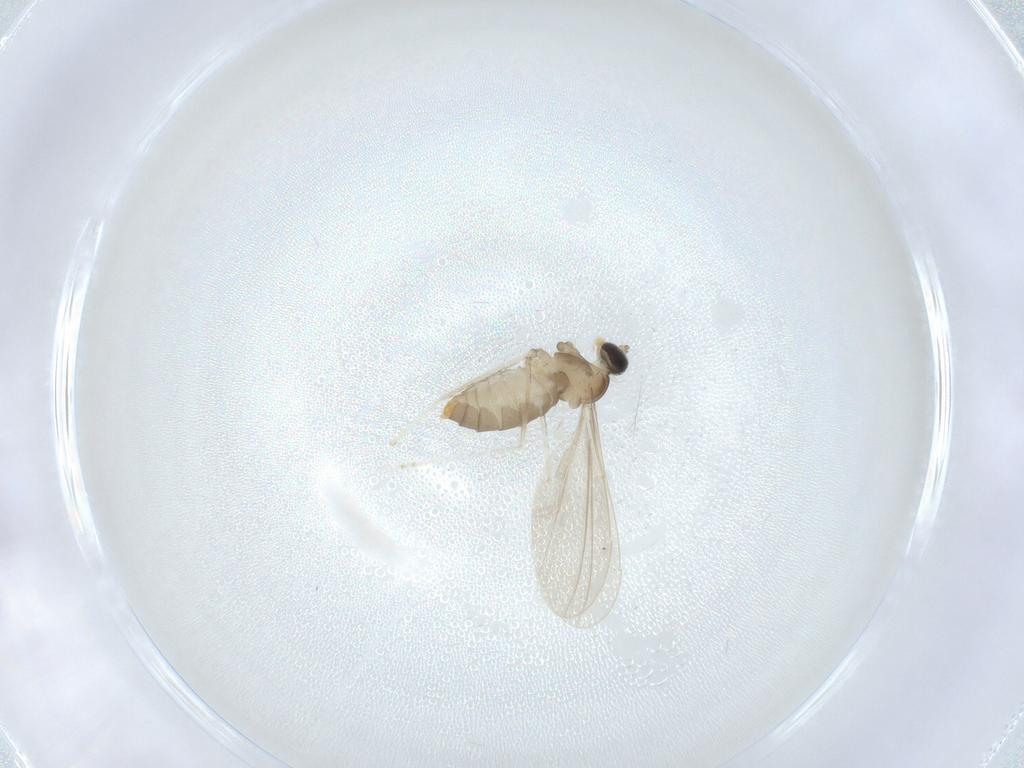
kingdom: Animalia
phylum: Arthropoda
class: Insecta
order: Diptera
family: Cecidomyiidae
